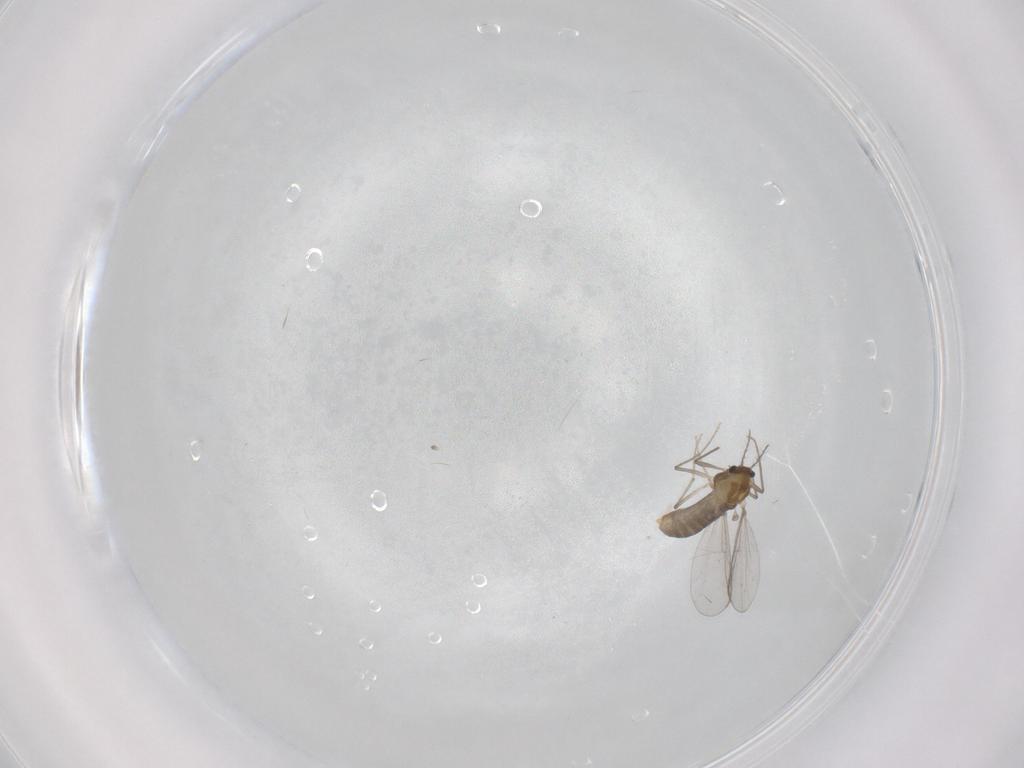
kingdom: Animalia
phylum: Arthropoda
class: Insecta
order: Diptera
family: Chironomidae
